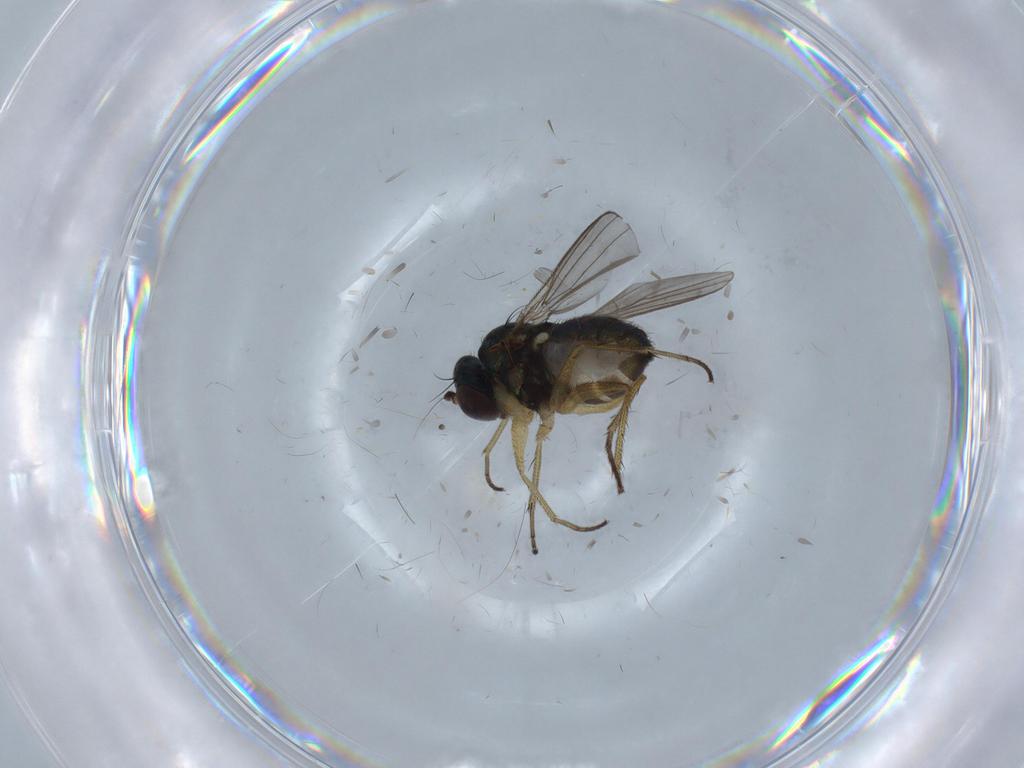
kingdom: Animalia
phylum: Arthropoda
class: Insecta
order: Diptera
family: Dolichopodidae
